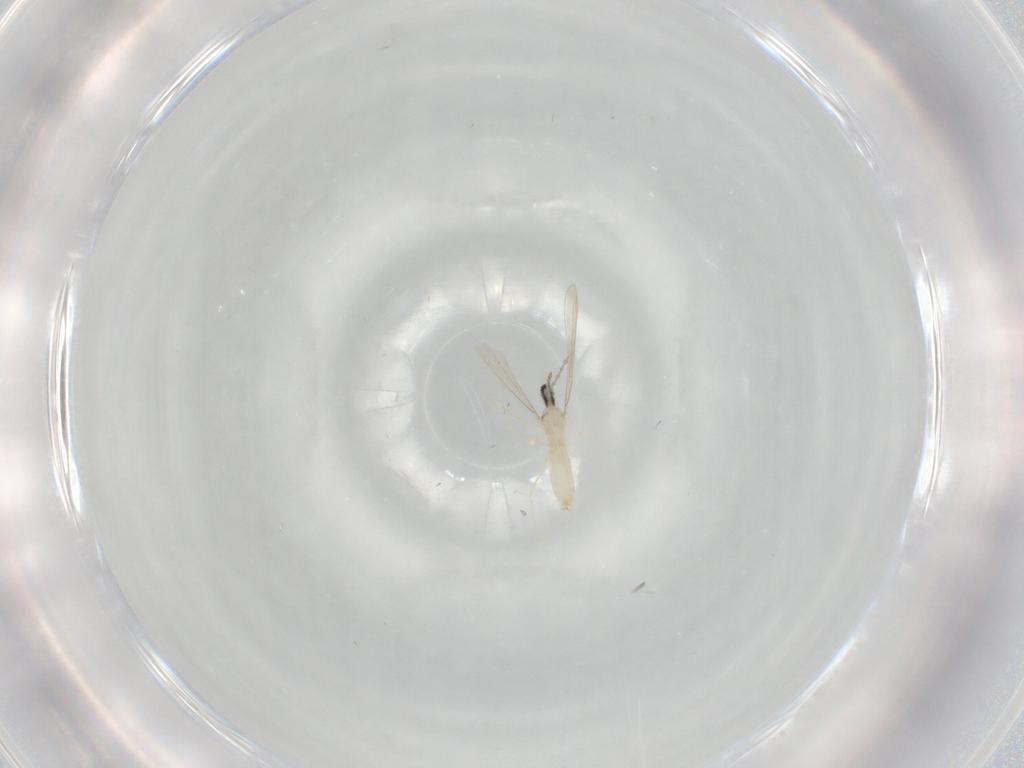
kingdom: Animalia
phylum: Arthropoda
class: Insecta
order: Diptera
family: Cecidomyiidae
